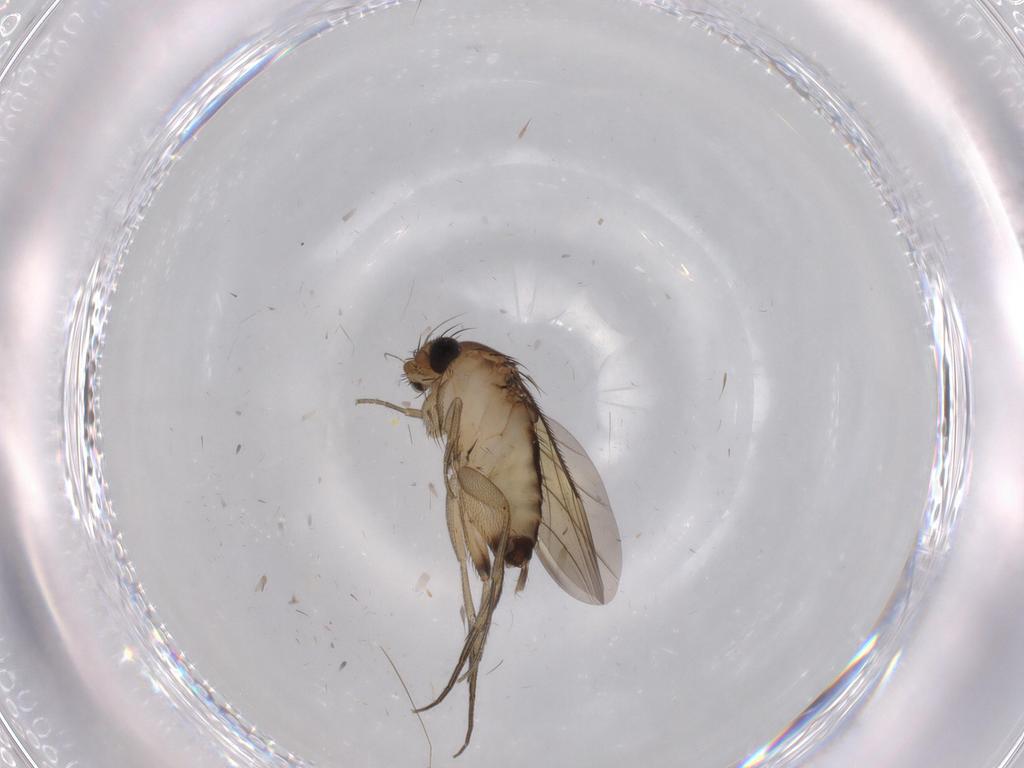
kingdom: Animalia
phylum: Arthropoda
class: Insecta
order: Diptera
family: Phoridae
